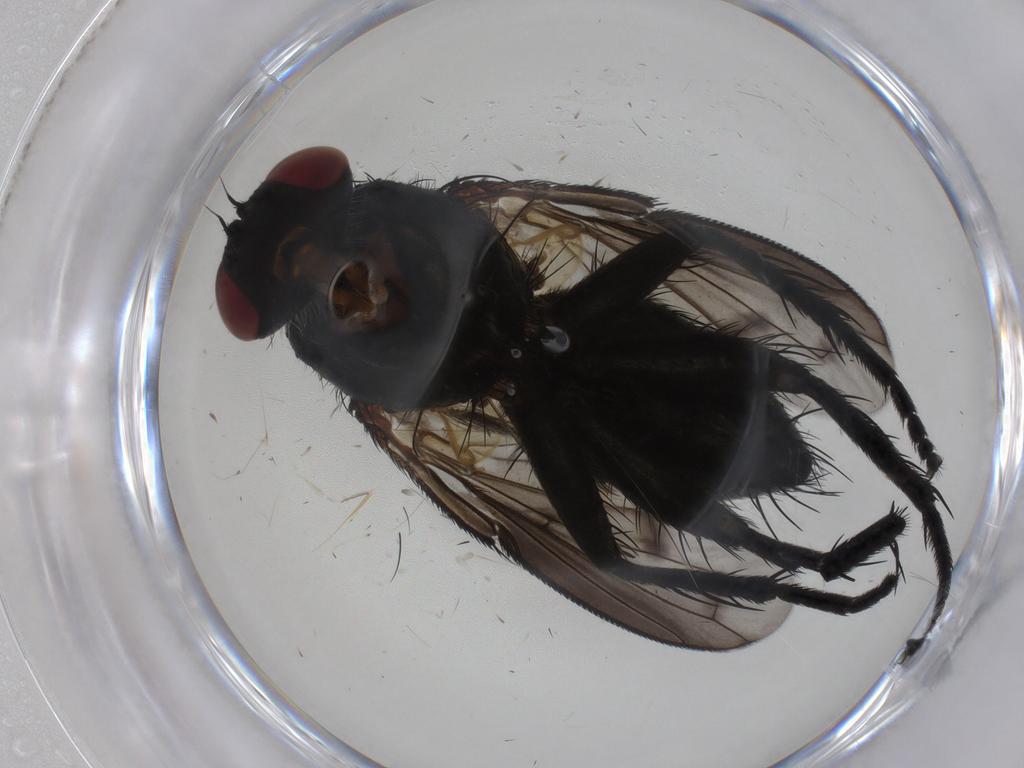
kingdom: Animalia
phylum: Arthropoda
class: Insecta
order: Diptera
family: Tachinidae
